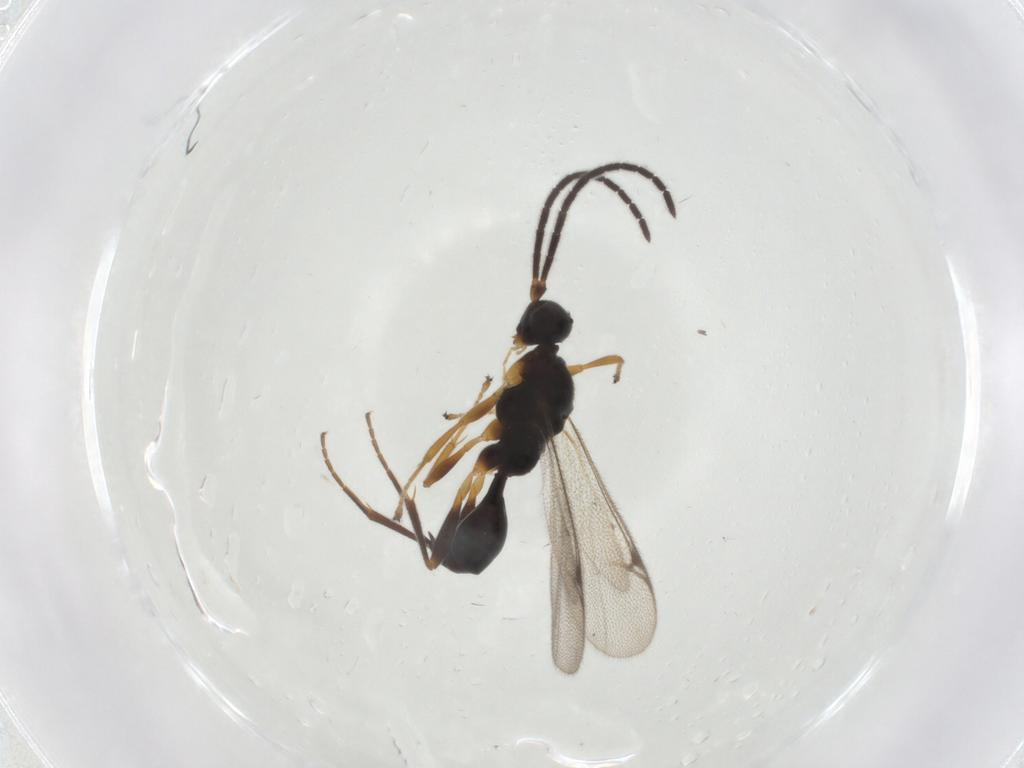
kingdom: Animalia
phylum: Arthropoda
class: Insecta
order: Hymenoptera
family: Proctotrupidae
